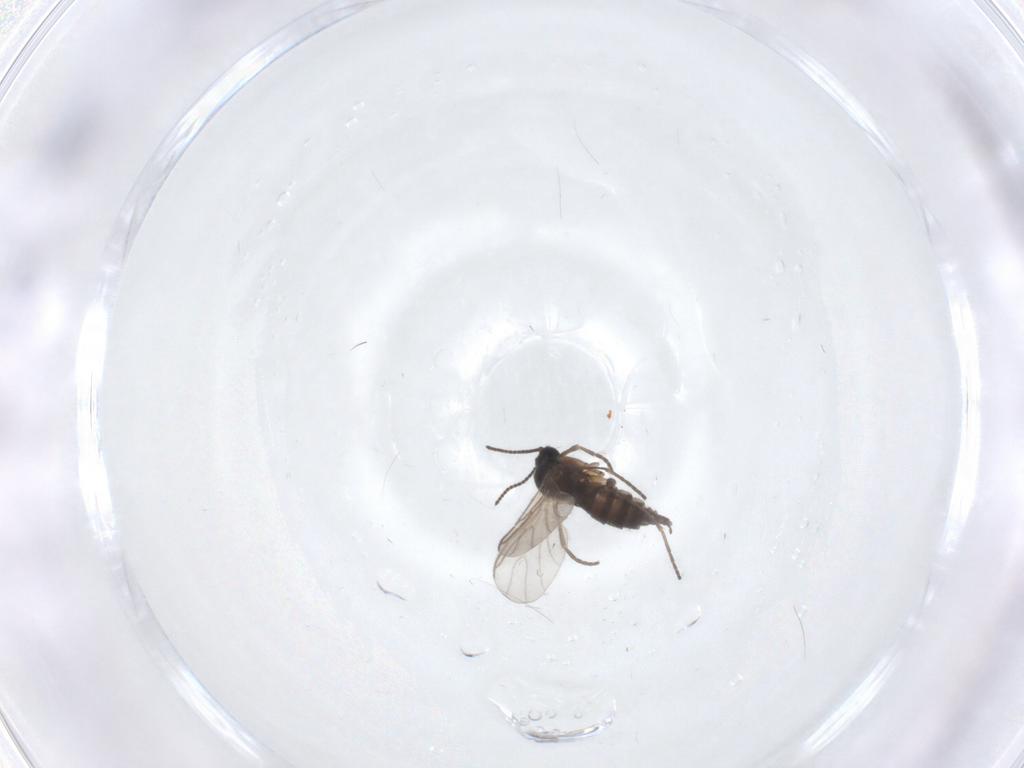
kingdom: Animalia
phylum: Arthropoda
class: Insecta
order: Diptera
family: Sciaridae
